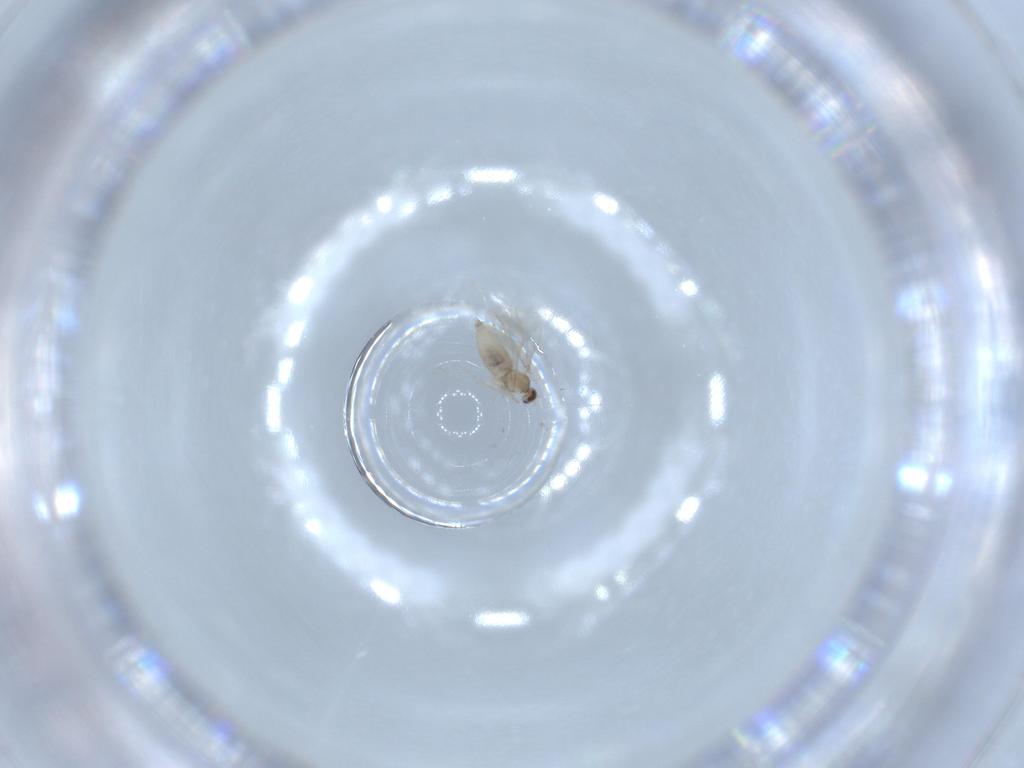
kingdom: Animalia
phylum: Arthropoda
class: Insecta
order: Diptera
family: Cecidomyiidae
